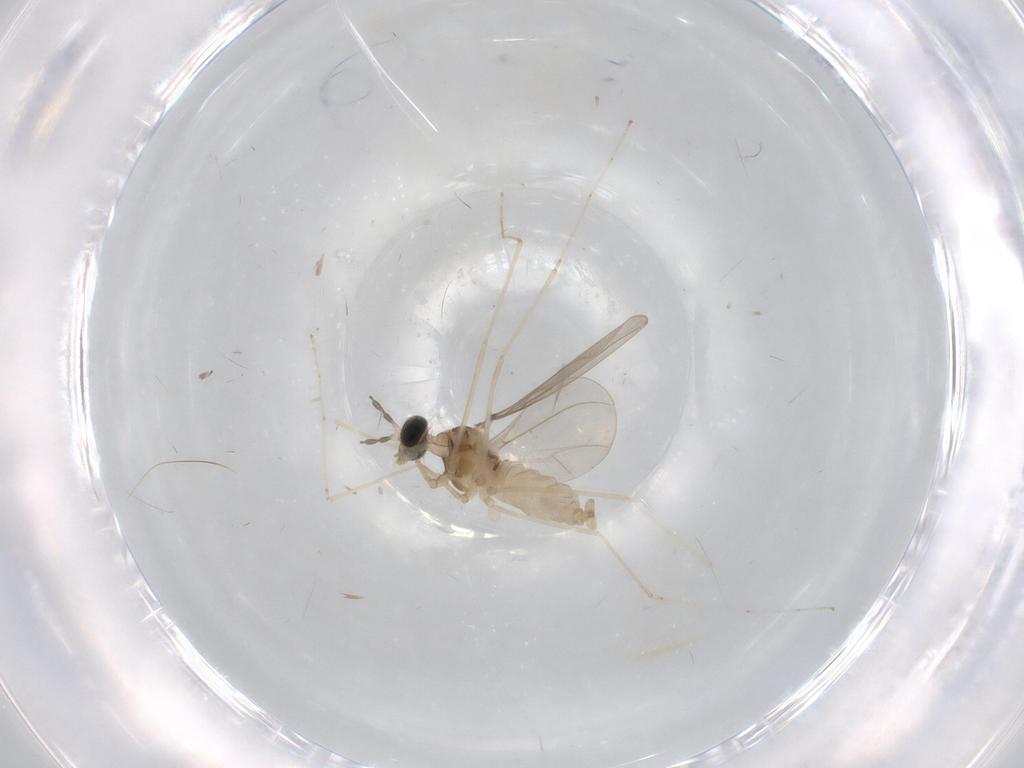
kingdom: Animalia
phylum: Arthropoda
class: Insecta
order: Diptera
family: Cecidomyiidae
